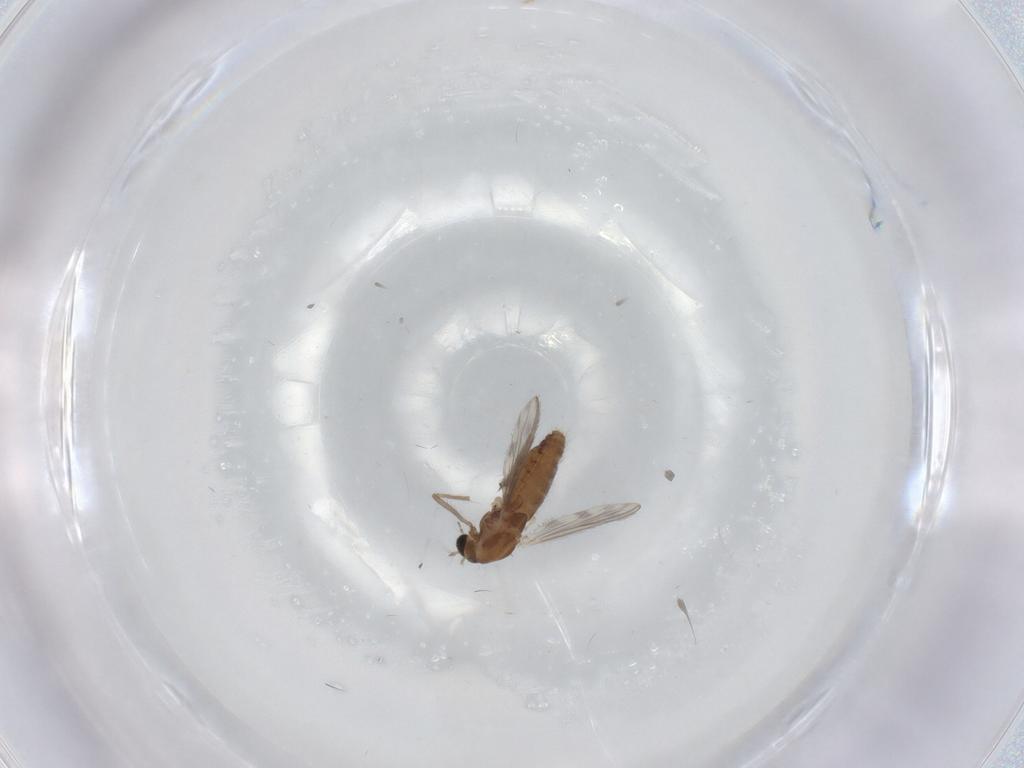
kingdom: Animalia
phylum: Arthropoda
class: Insecta
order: Diptera
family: Chironomidae
